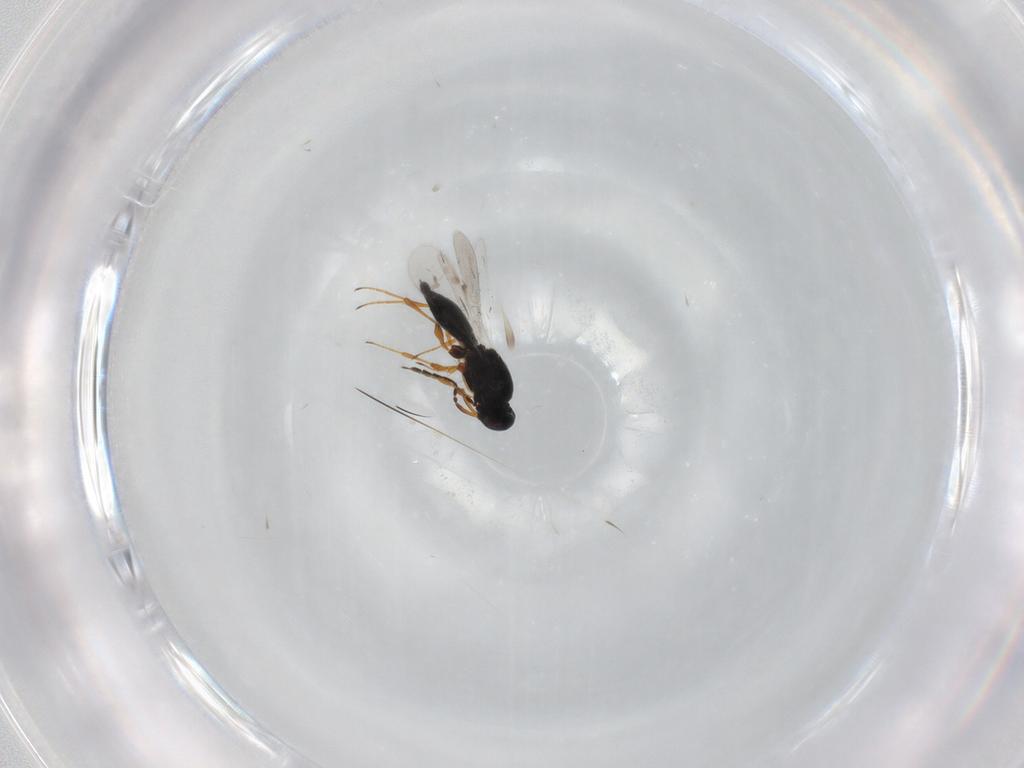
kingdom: Animalia
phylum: Arthropoda
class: Insecta
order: Hymenoptera
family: Platygastridae
